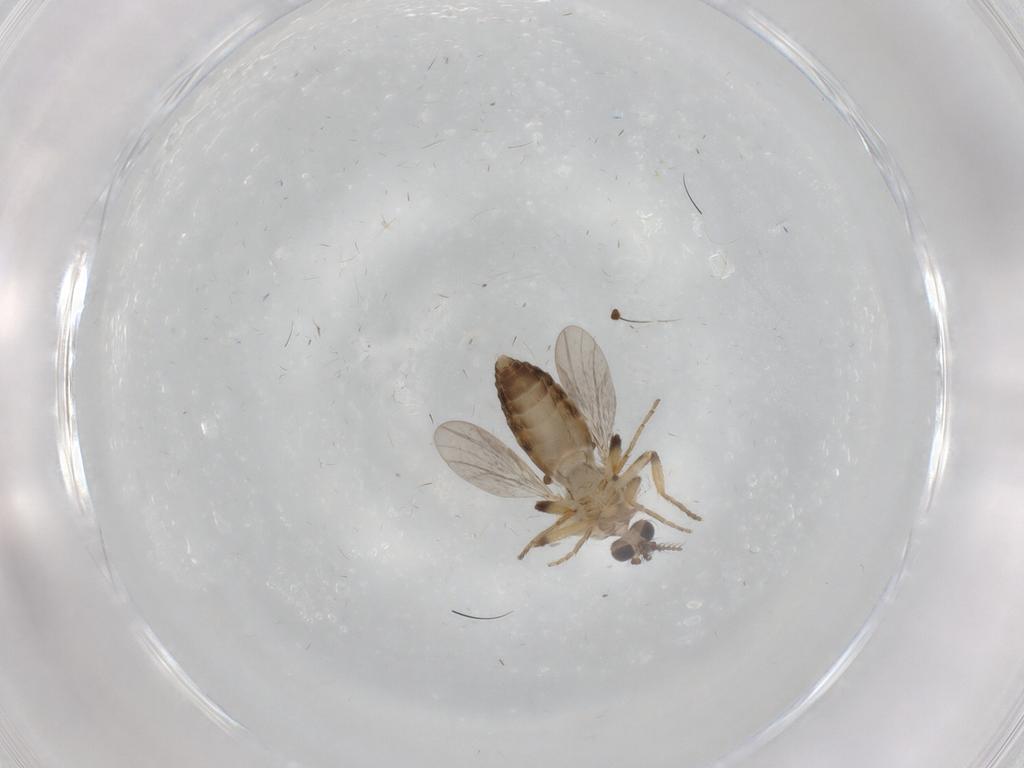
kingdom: Animalia
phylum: Arthropoda
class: Insecta
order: Diptera
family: Ceratopogonidae
